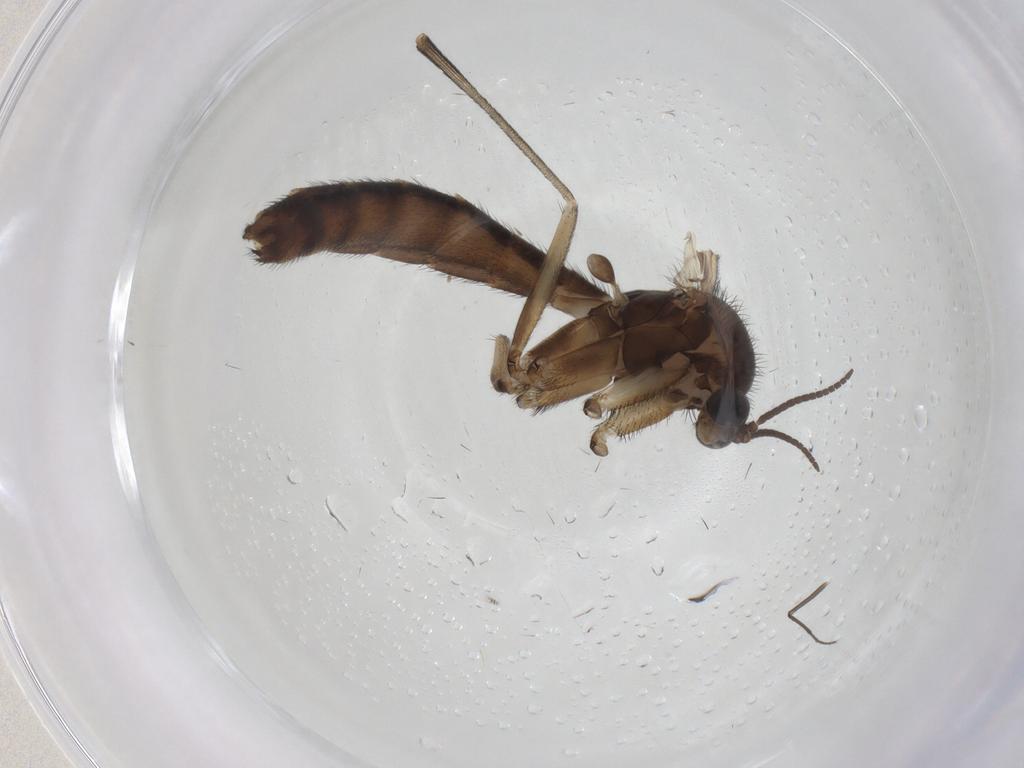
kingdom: Animalia
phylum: Arthropoda
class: Insecta
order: Diptera
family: Keroplatidae
